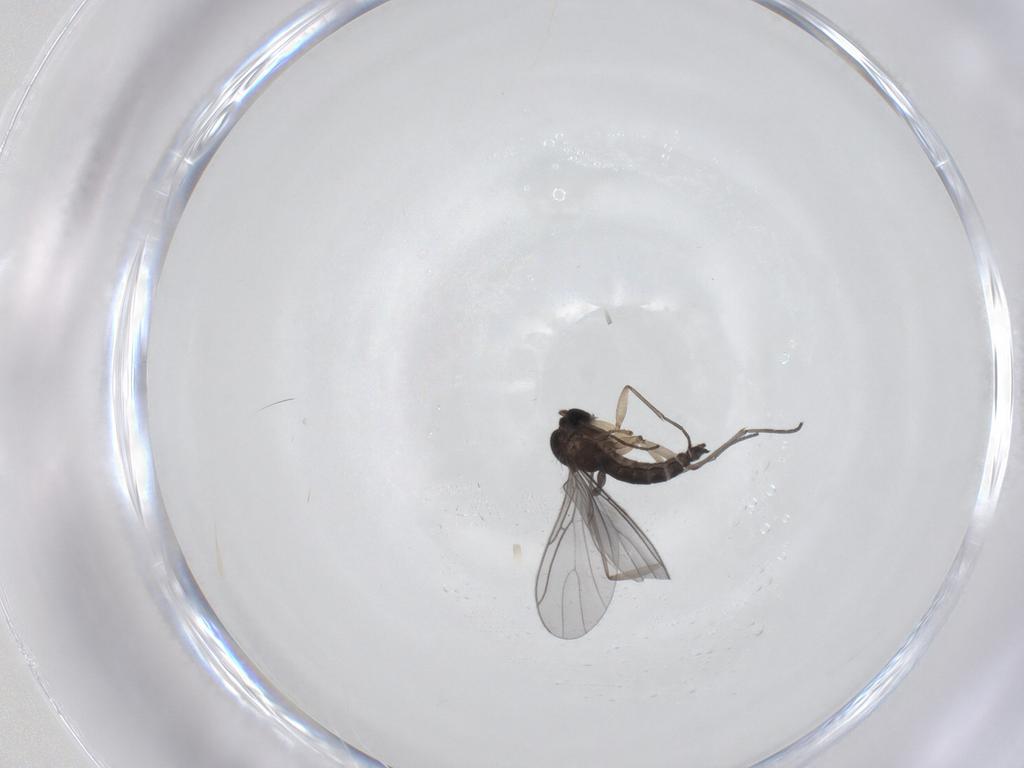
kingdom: Animalia
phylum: Arthropoda
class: Insecta
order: Diptera
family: Sciaridae
